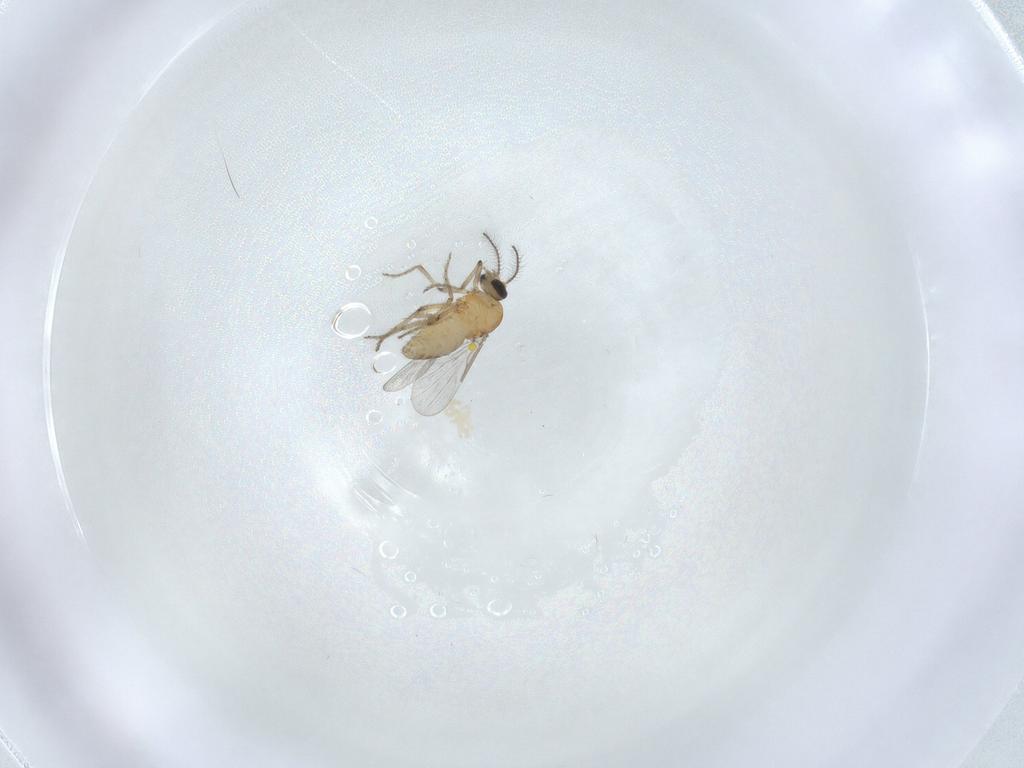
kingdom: Animalia
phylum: Arthropoda
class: Insecta
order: Diptera
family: Ceratopogonidae
